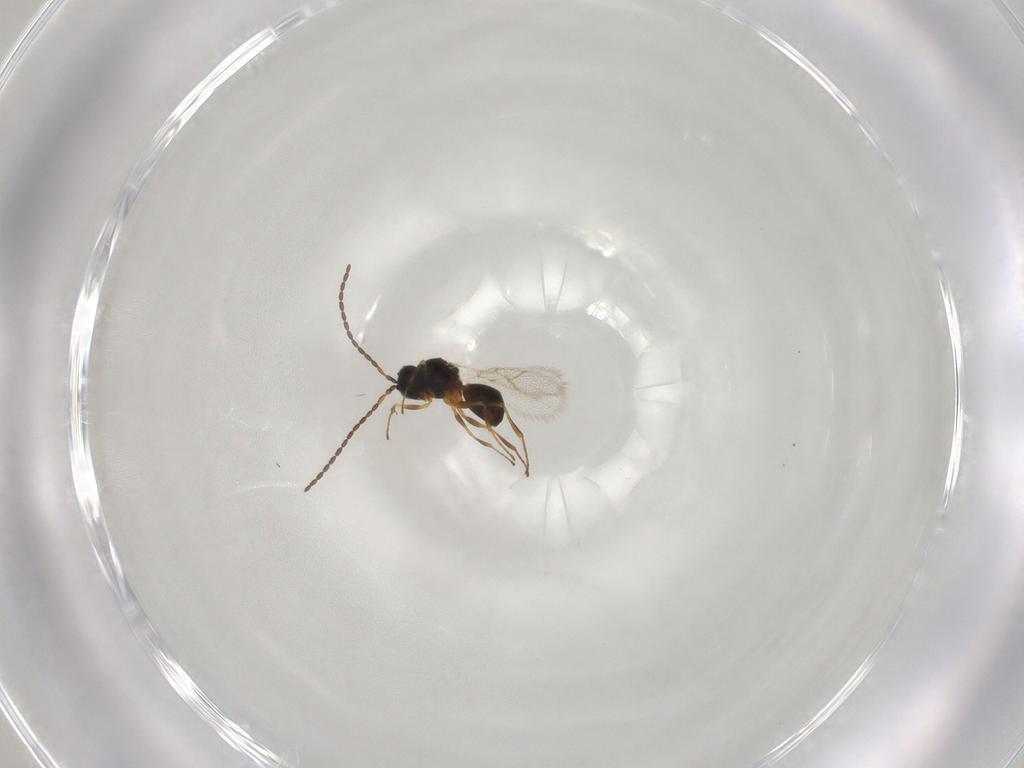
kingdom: Animalia
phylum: Arthropoda
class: Insecta
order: Hymenoptera
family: Figitidae
